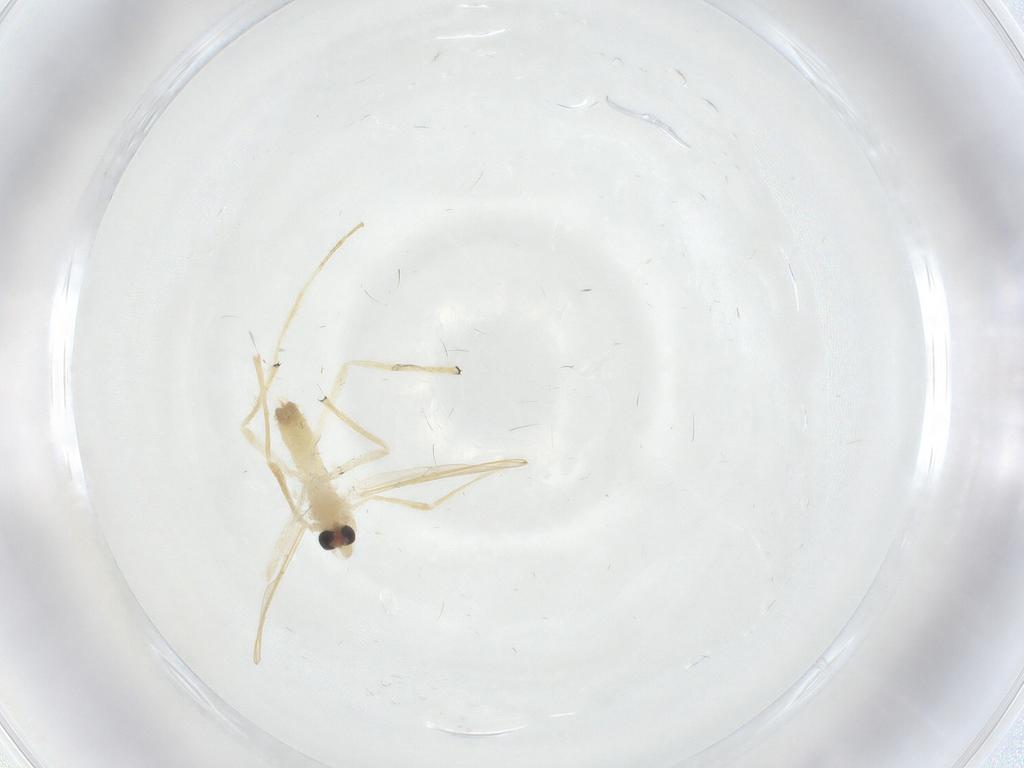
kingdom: Animalia
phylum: Arthropoda
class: Insecta
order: Diptera
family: Chironomidae
